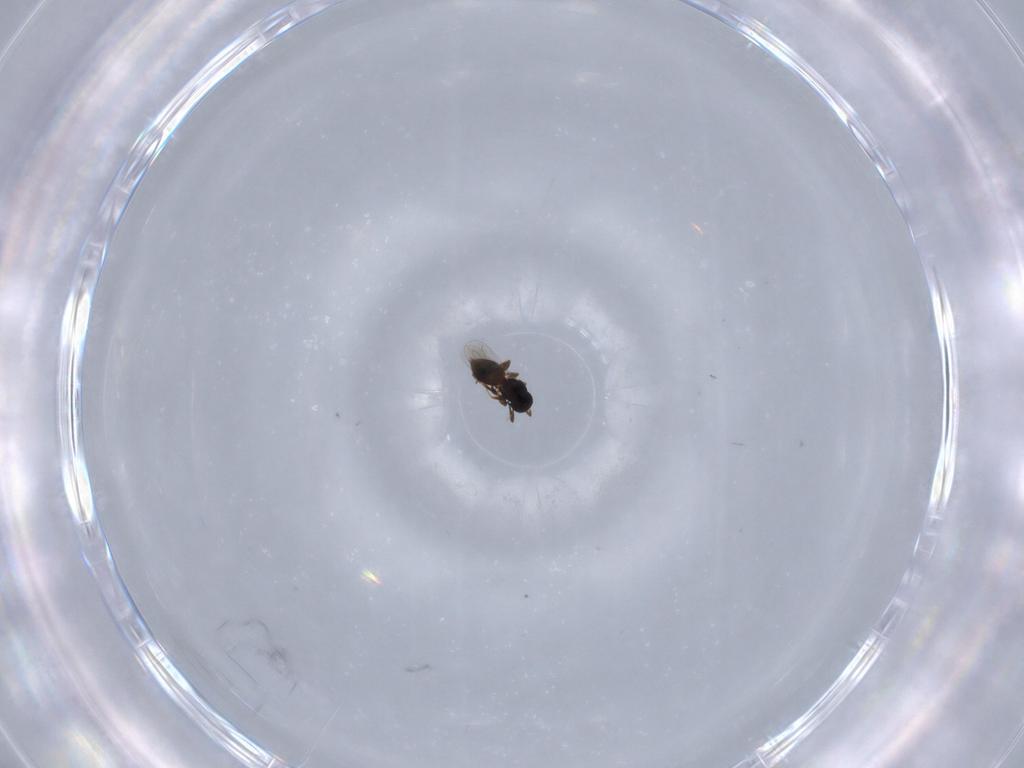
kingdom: Animalia
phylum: Arthropoda
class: Insecta
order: Hymenoptera
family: Platygastridae
